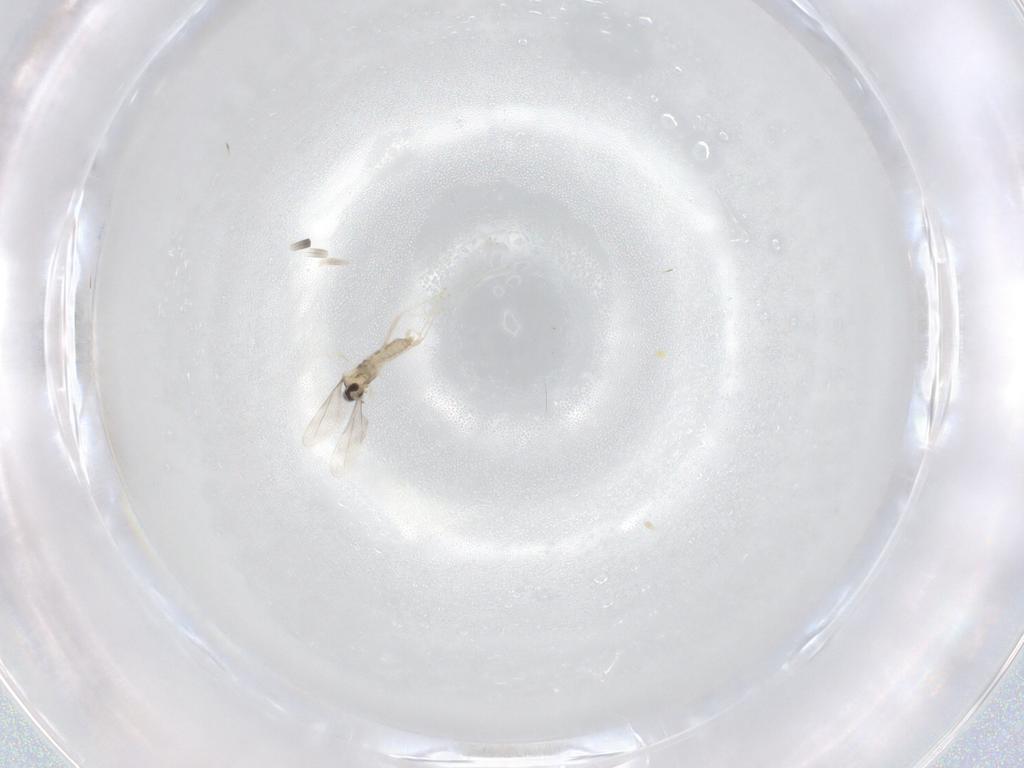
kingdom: Animalia
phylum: Arthropoda
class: Insecta
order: Diptera
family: Cecidomyiidae
